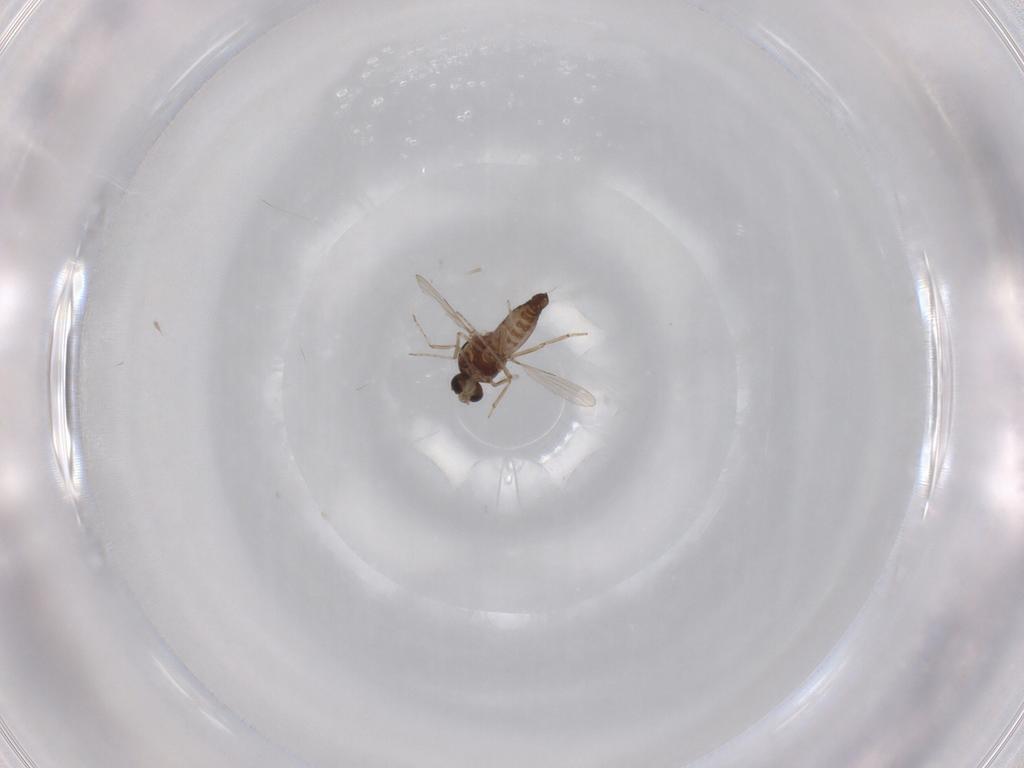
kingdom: Animalia
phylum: Arthropoda
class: Insecta
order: Diptera
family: Ceratopogonidae
